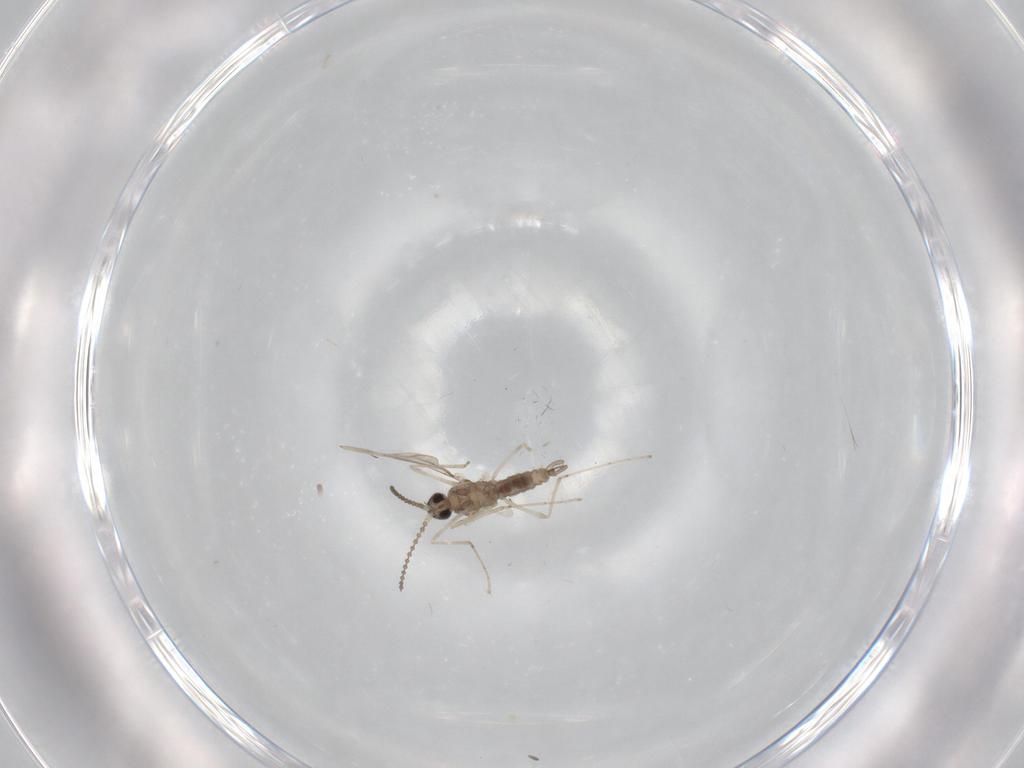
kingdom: Animalia
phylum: Arthropoda
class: Insecta
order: Diptera
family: Cecidomyiidae
